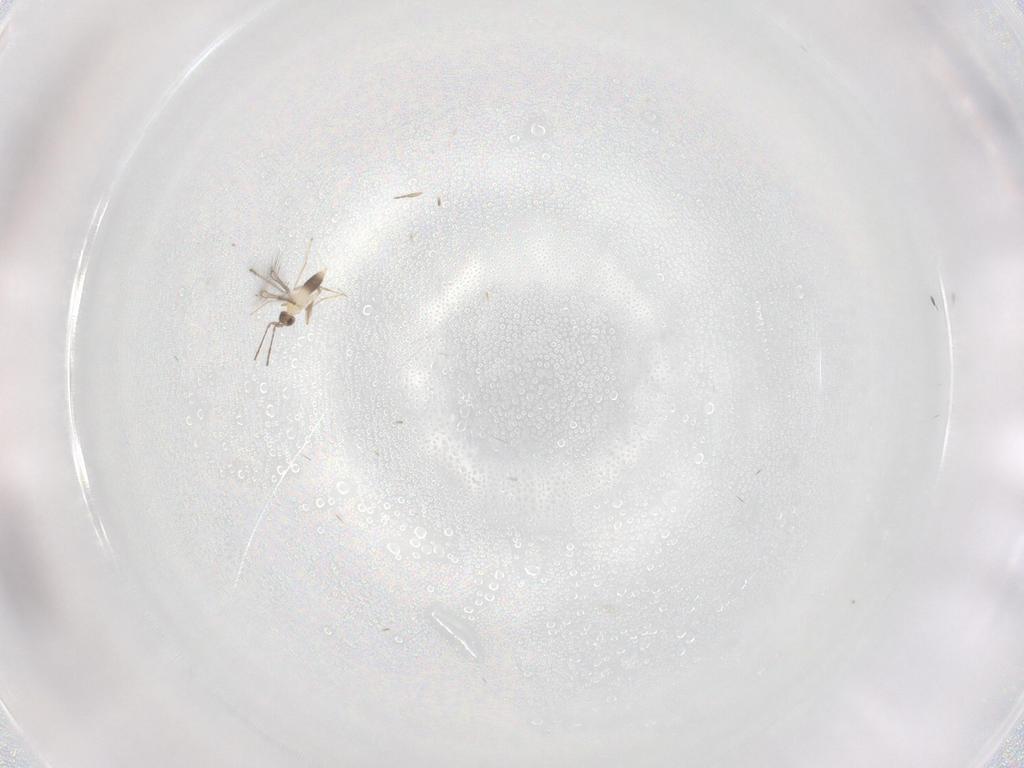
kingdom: Animalia
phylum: Arthropoda
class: Insecta
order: Hymenoptera
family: Mymaridae
